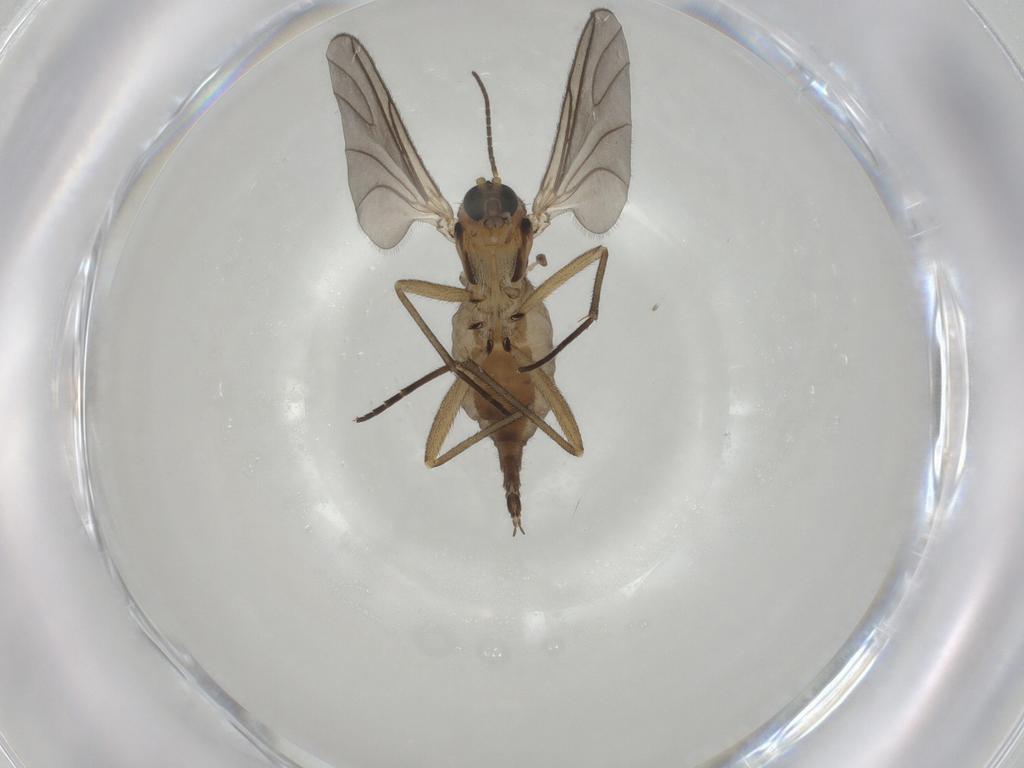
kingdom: Animalia
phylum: Arthropoda
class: Insecta
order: Diptera
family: Sciaridae
